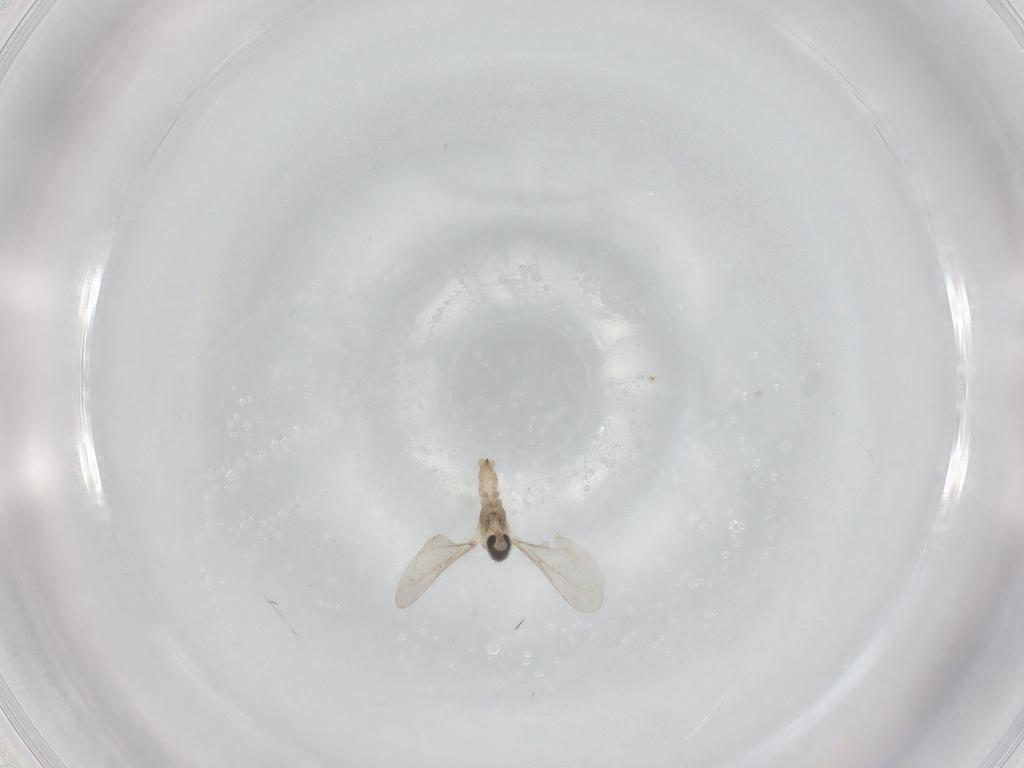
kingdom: Animalia
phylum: Arthropoda
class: Insecta
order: Diptera
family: Cecidomyiidae
